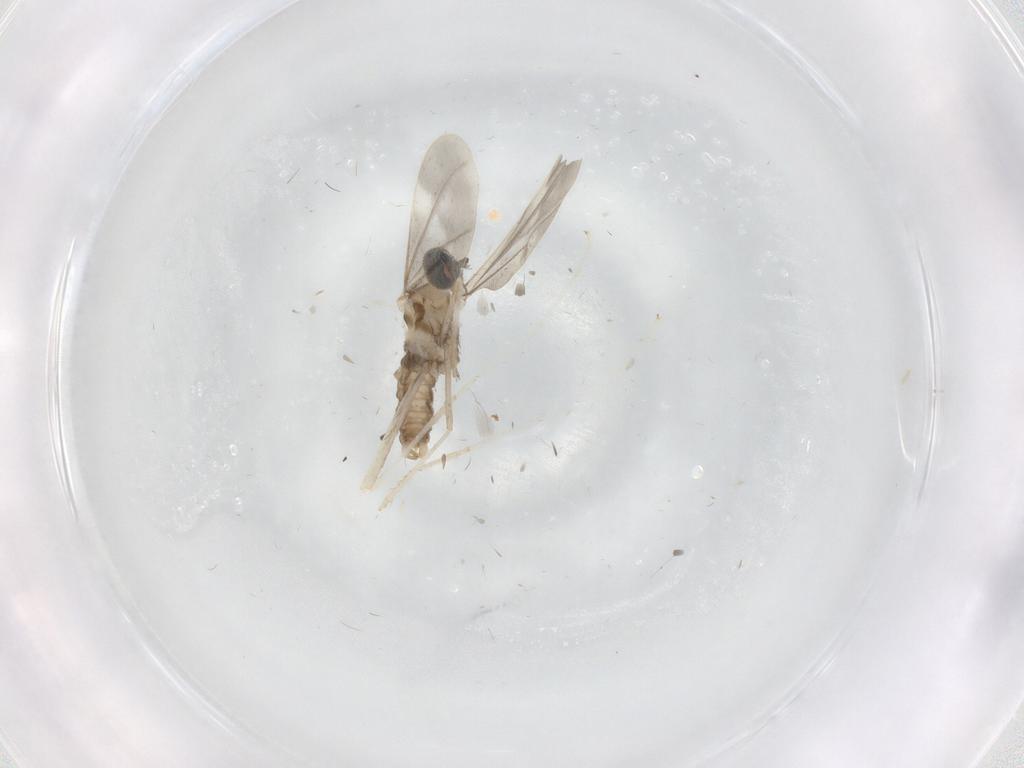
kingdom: Animalia
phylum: Arthropoda
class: Insecta
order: Diptera
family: Cecidomyiidae
